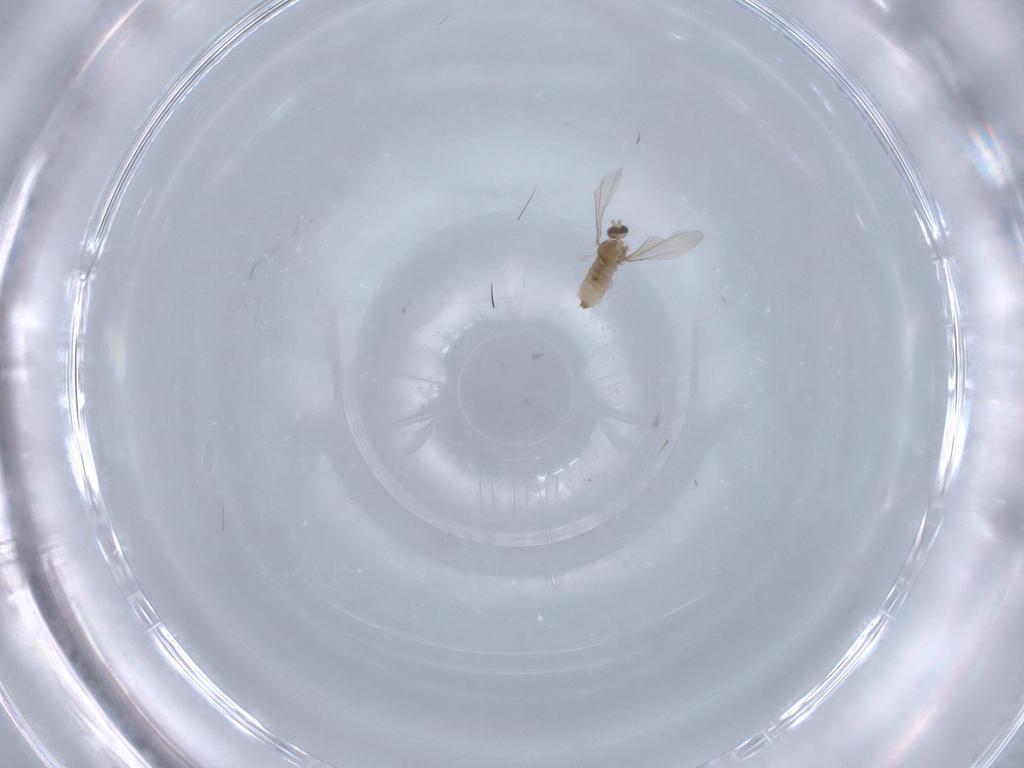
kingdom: Animalia
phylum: Arthropoda
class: Insecta
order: Diptera
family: Cecidomyiidae
